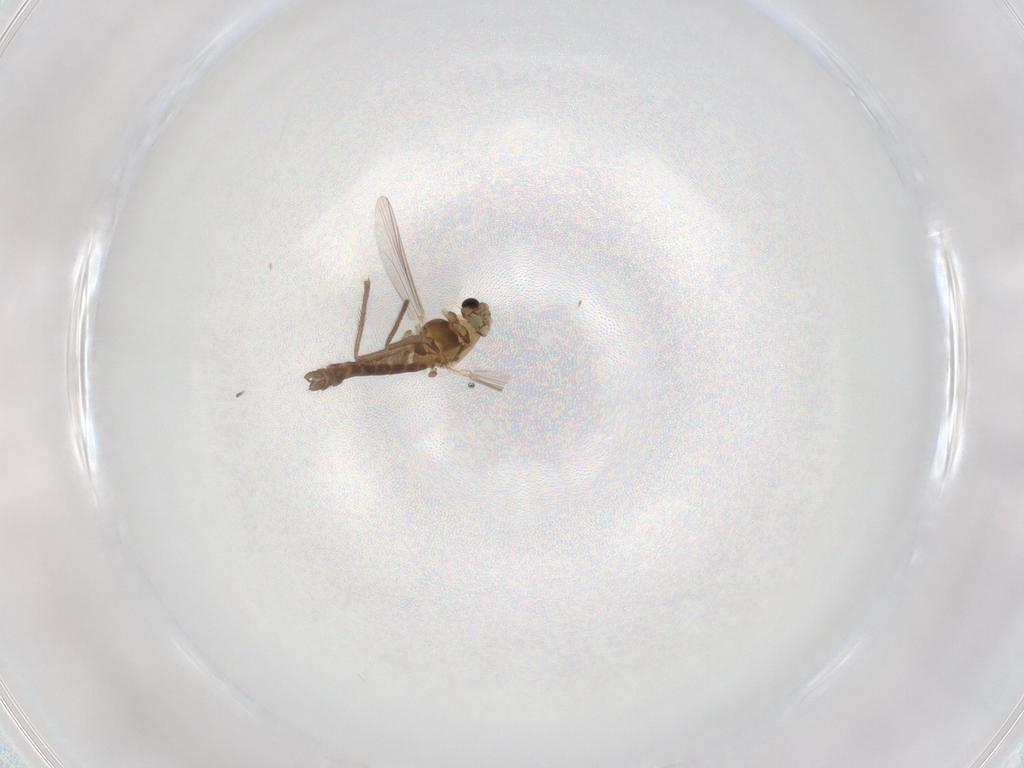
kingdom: Animalia
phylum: Arthropoda
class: Insecta
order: Diptera
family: Chironomidae
